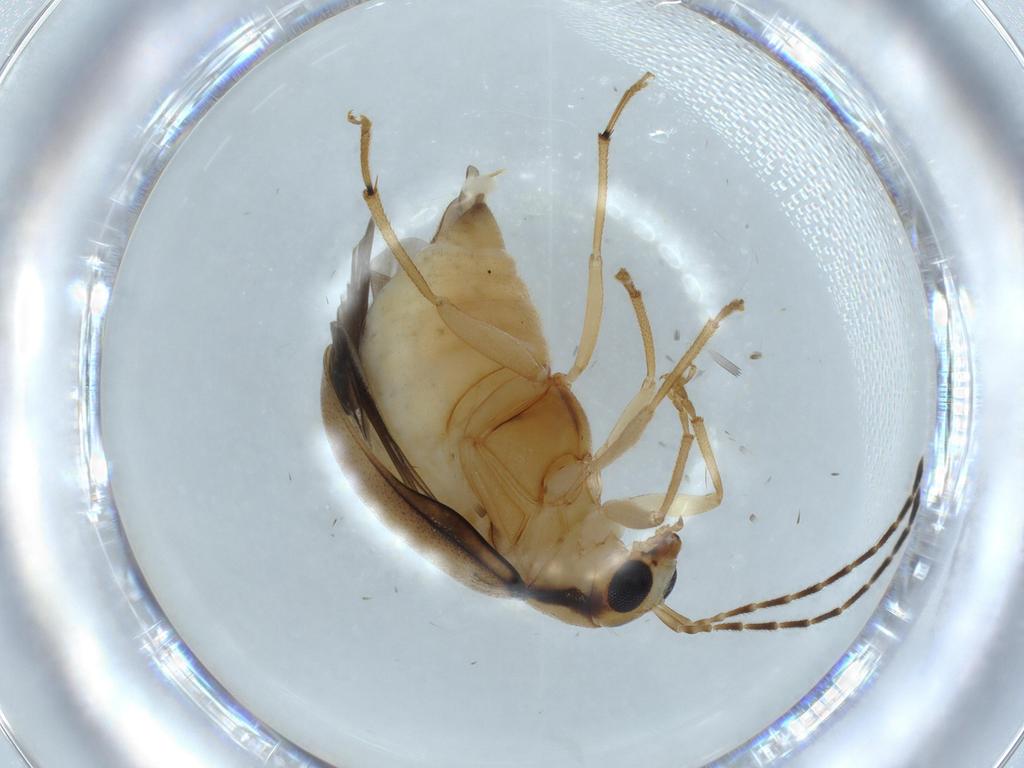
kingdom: Animalia
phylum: Arthropoda
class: Insecta
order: Coleoptera
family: Chrysomelidae
